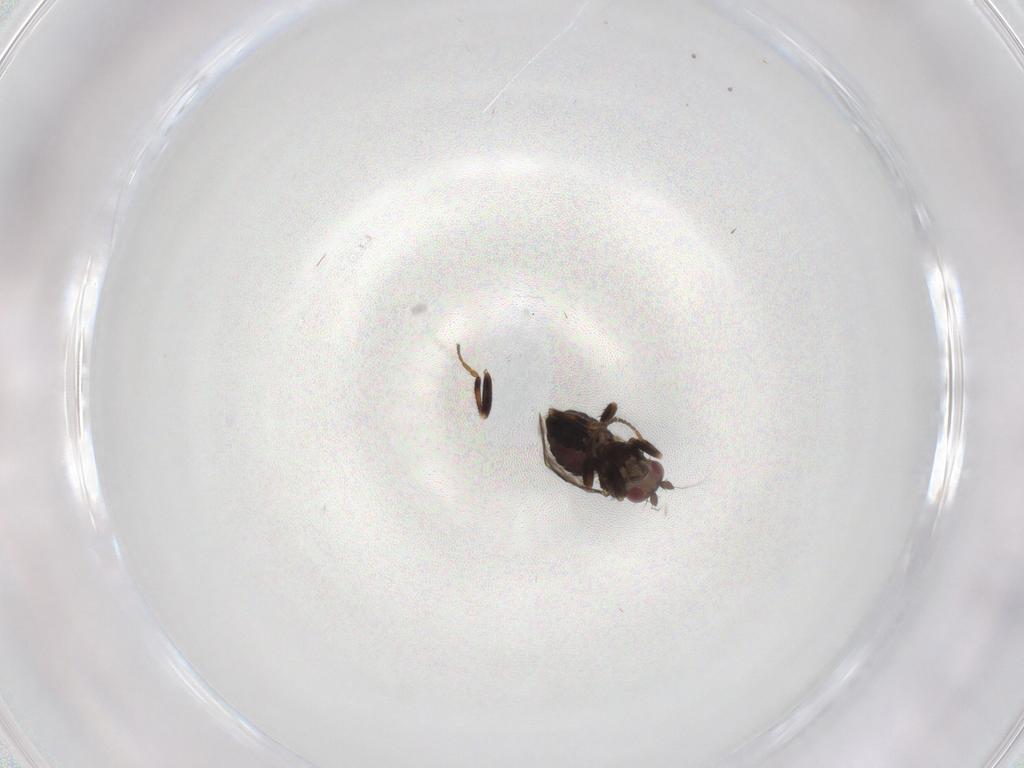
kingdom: Animalia
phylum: Arthropoda
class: Insecta
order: Diptera
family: Sphaeroceridae
